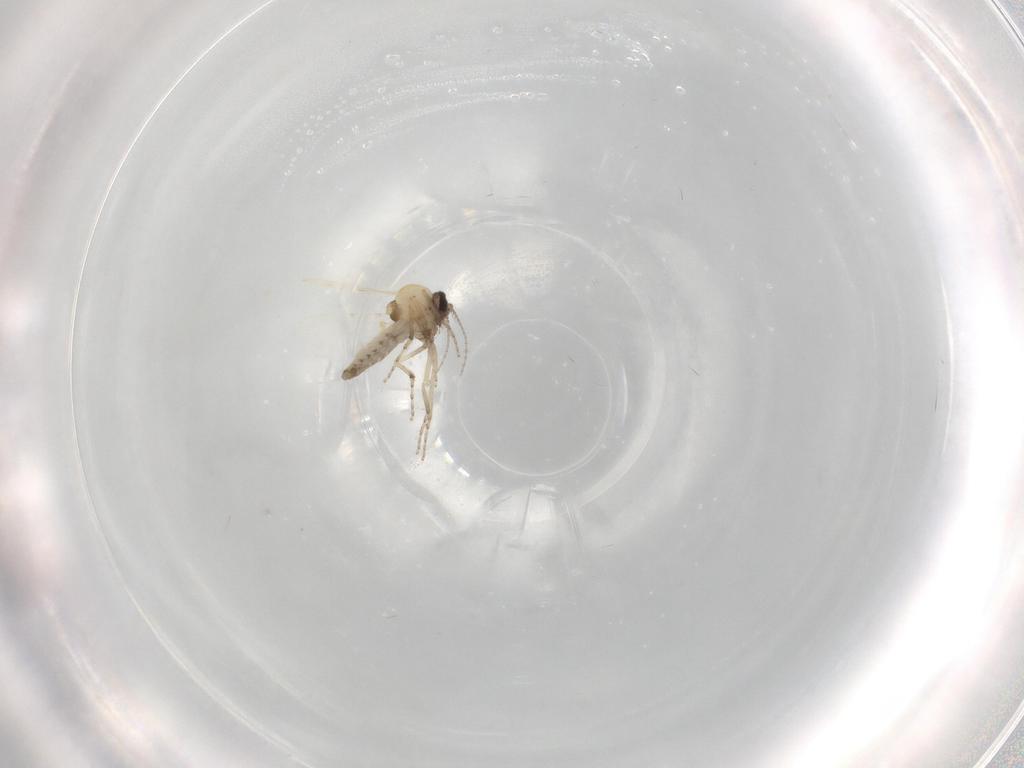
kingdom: Animalia
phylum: Arthropoda
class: Insecta
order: Diptera
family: Ceratopogonidae
